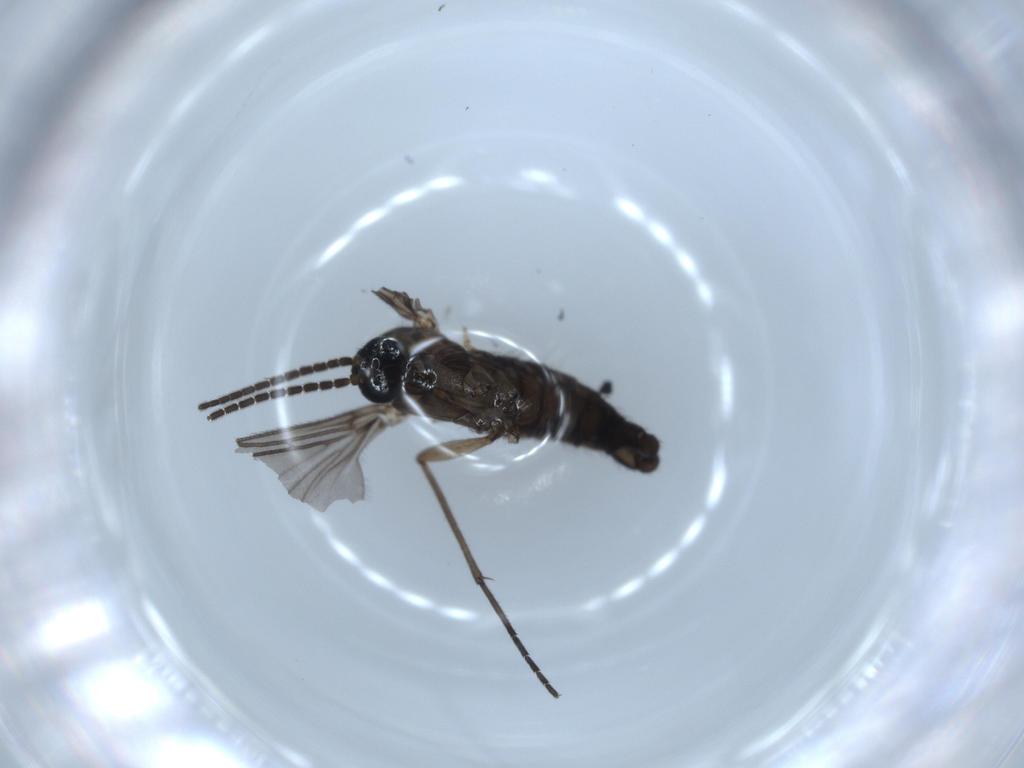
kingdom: Animalia
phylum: Arthropoda
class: Insecta
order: Diptera
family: Sciaridae
